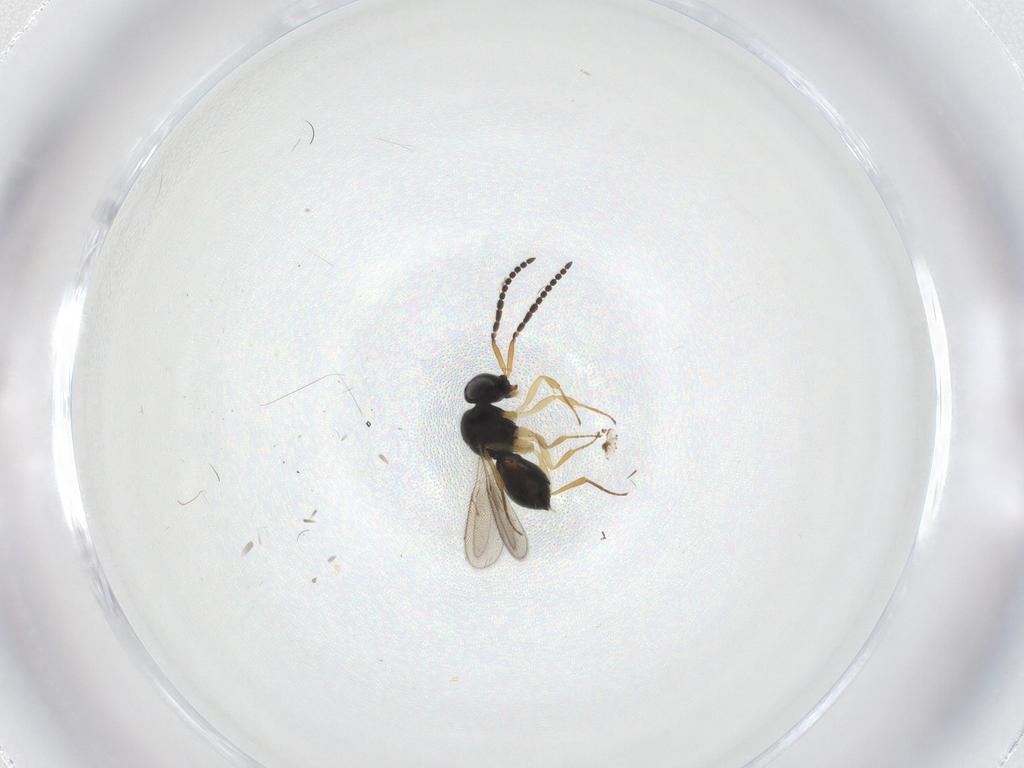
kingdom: Animalia
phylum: Arthropoda
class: Insecta
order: Hymenoptera
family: Scelionidae
